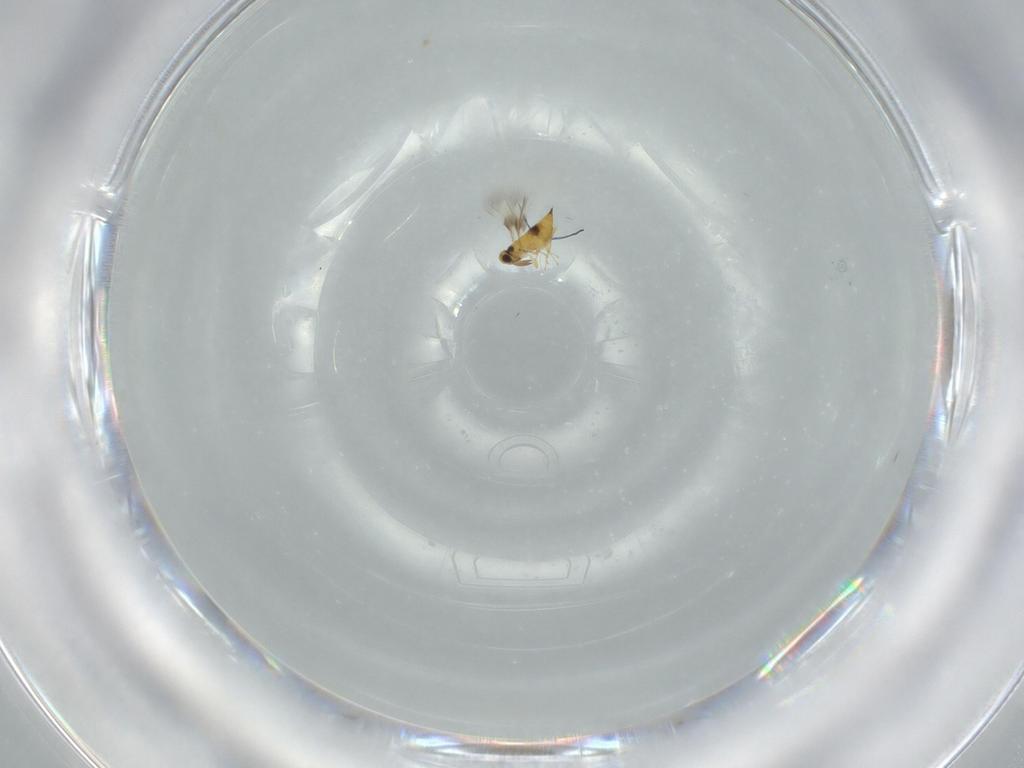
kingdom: Animalia
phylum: Arthropoda
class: Insecta
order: Hymenoptera
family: Signiphoridae
